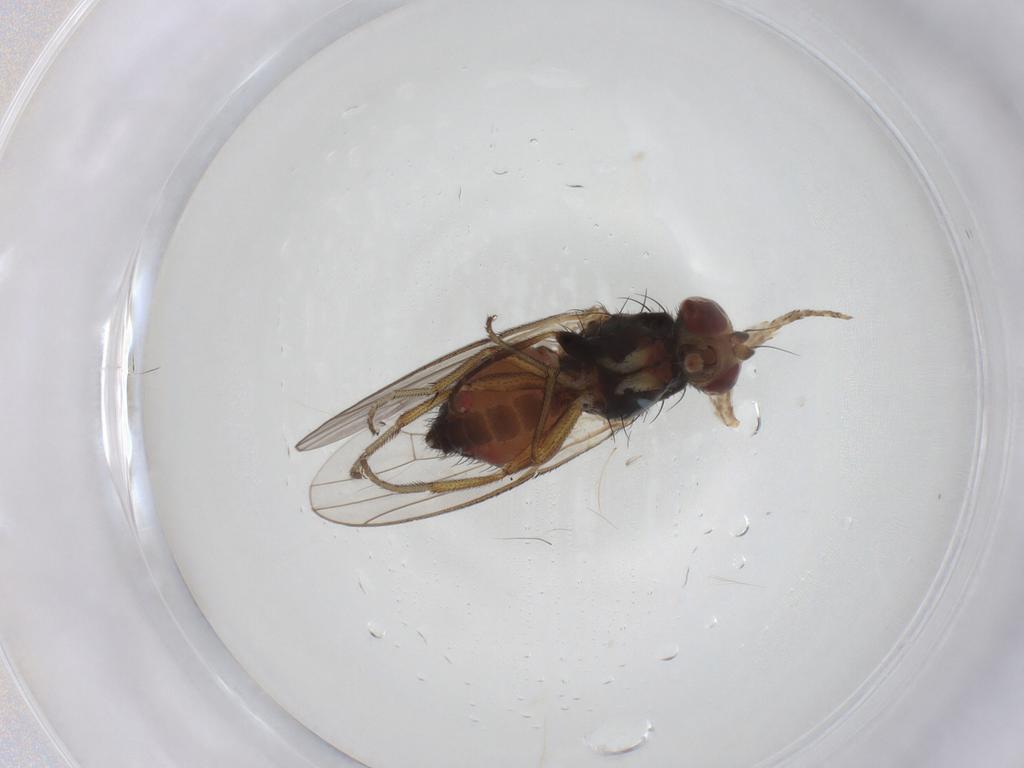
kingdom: Animalia
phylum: Arthropoda
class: Insecta
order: Diptera
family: Heleomyzidae
